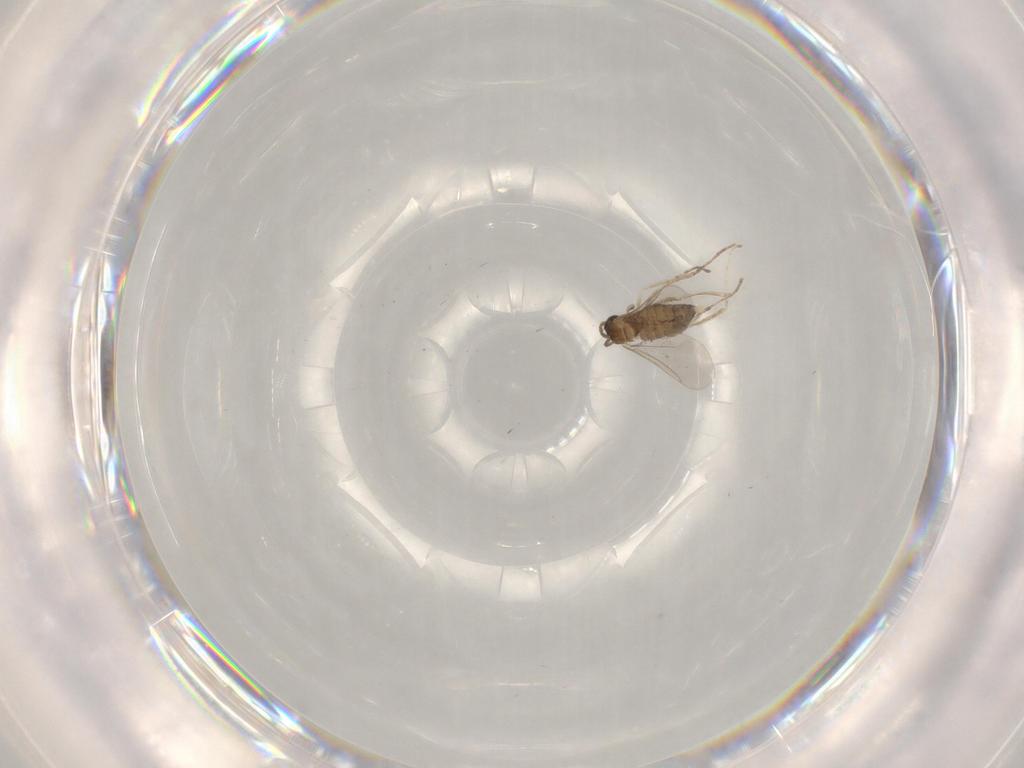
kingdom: Animalia
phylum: Arthropoda
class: Insecta
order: Diptera
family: Cecidomyiidae
